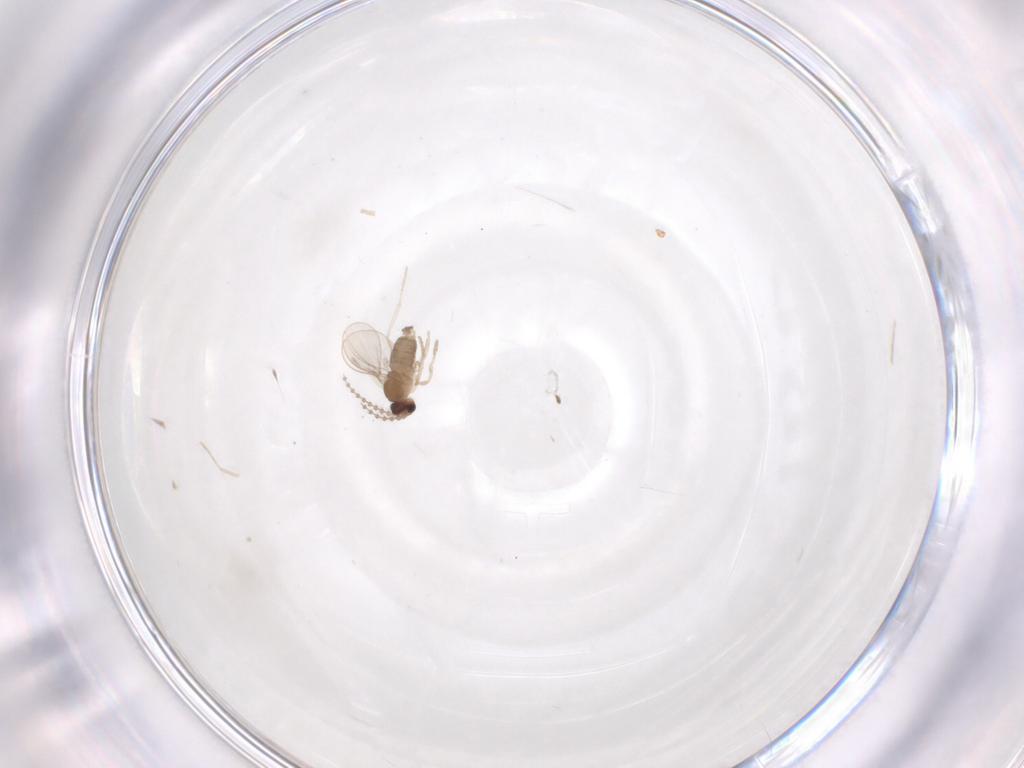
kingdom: Animalia
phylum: Arthropoda
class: Insecta
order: Diptera
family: Cecidomyiidae
